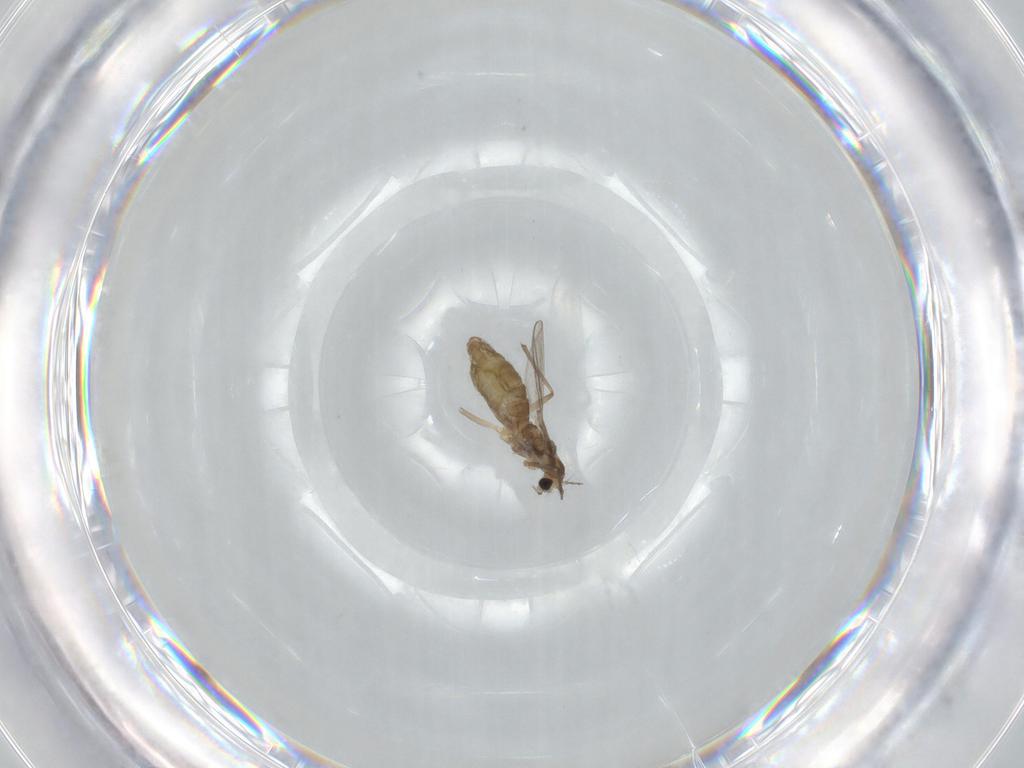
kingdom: Animalia
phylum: Arthropoda
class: Insecta
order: Diptera
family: Chironomidae
